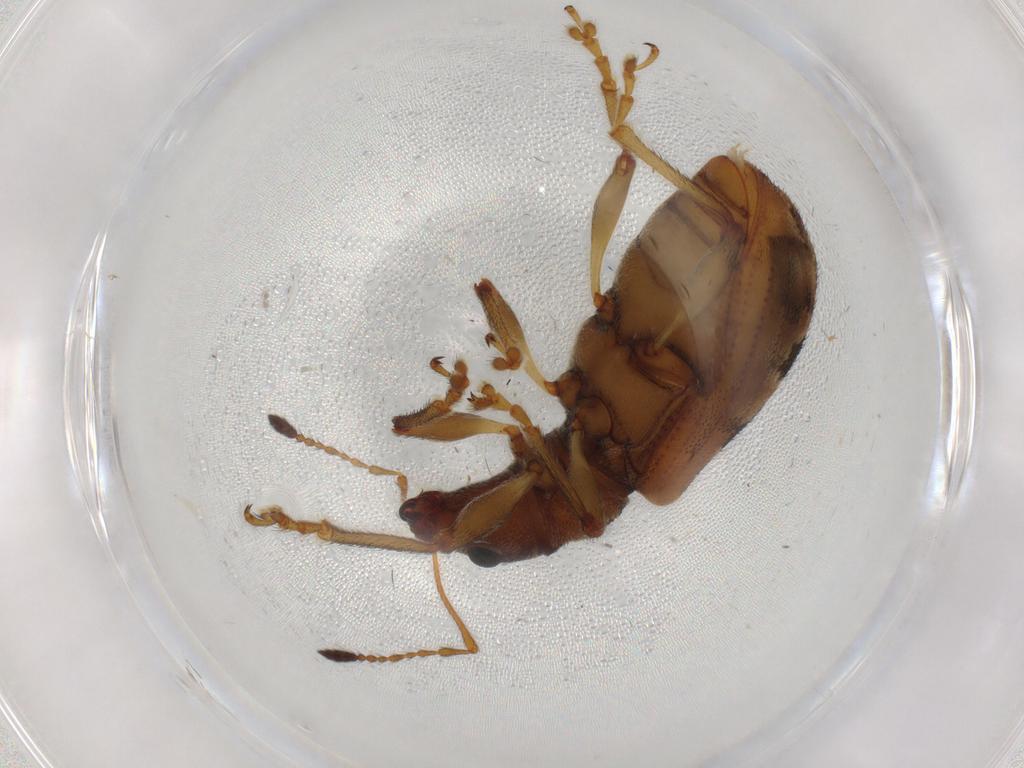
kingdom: Animalia
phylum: Arthropoda
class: Insecta
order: Coleoptera
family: Curculionidae
